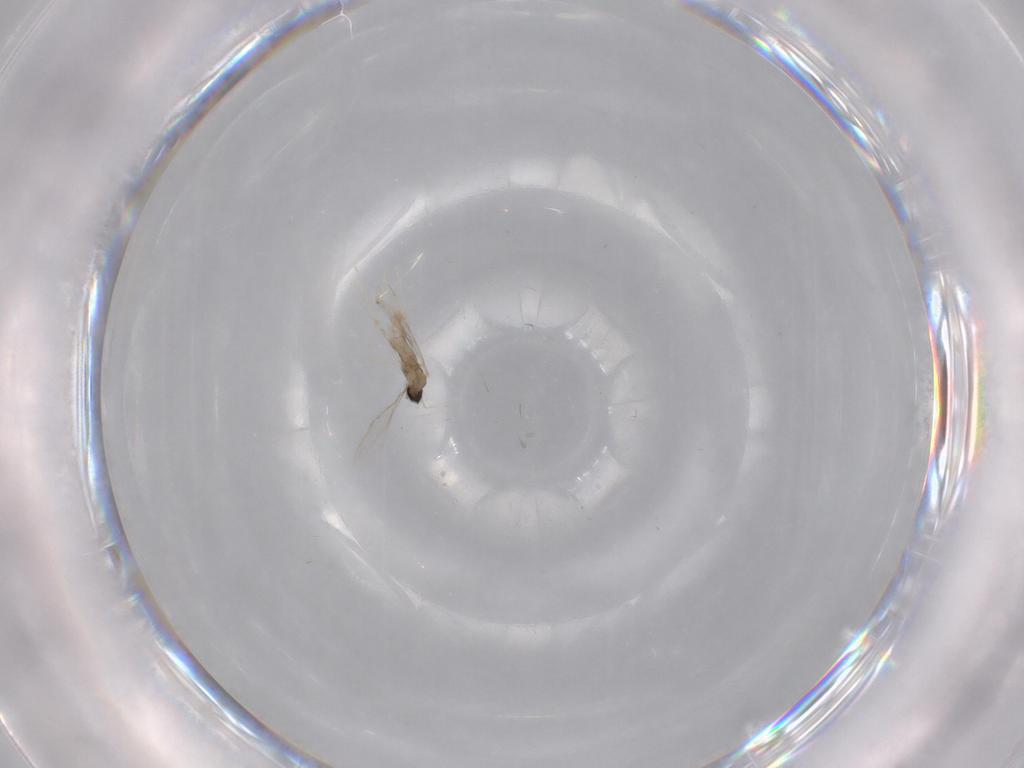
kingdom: Animalia
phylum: Arthropoda
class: Insecta
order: Diptera
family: Cecidomyiidae
